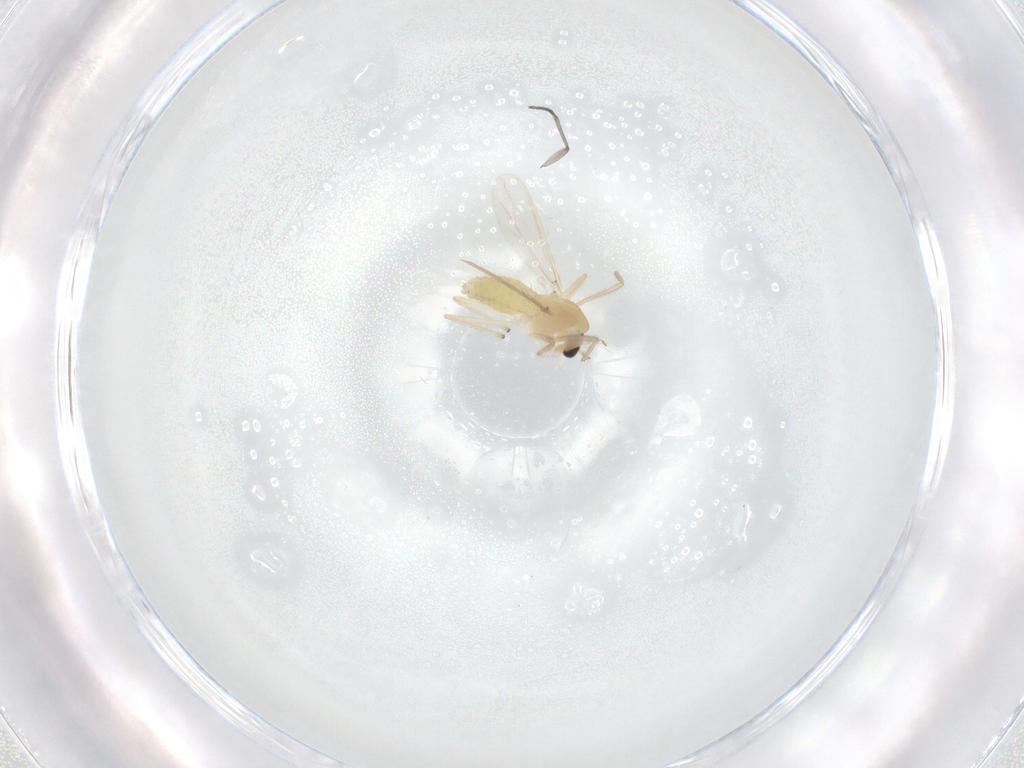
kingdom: Animalia
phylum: Arthropoda
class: Insecta
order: Diptera
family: Chironomidae
